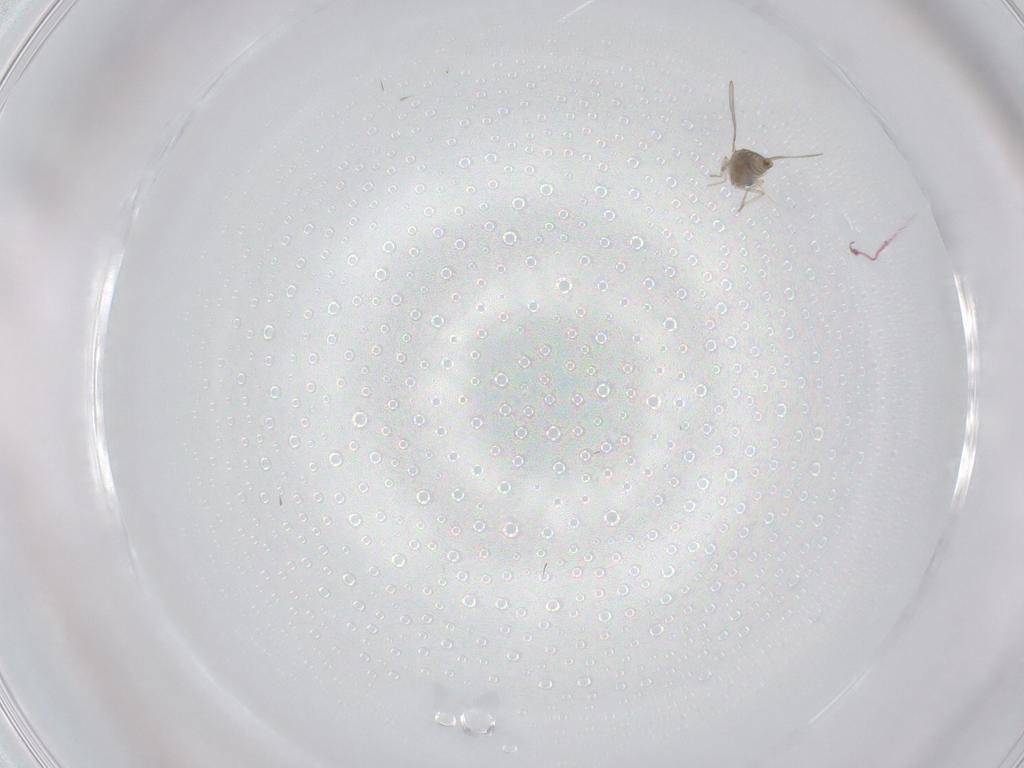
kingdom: Animalia
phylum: Arthropoda
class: Insecta
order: Diptera
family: Cecidomyiidae
